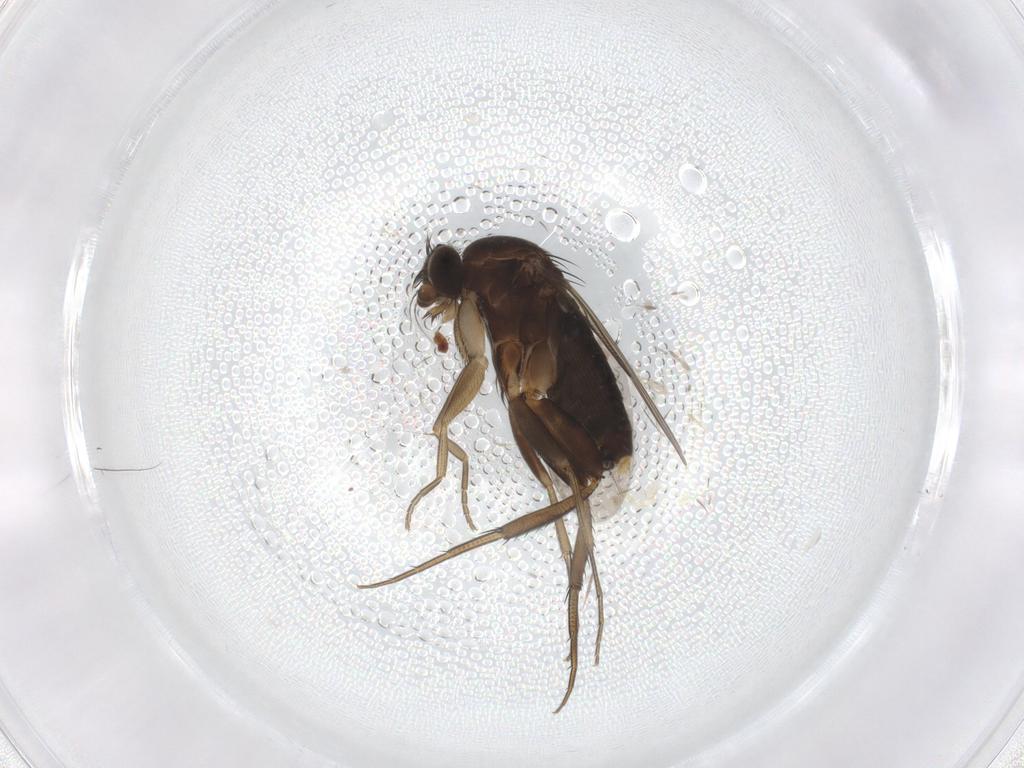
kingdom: Animalia
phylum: Arthropoda
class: Insecta
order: Diptera
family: Phoridae
